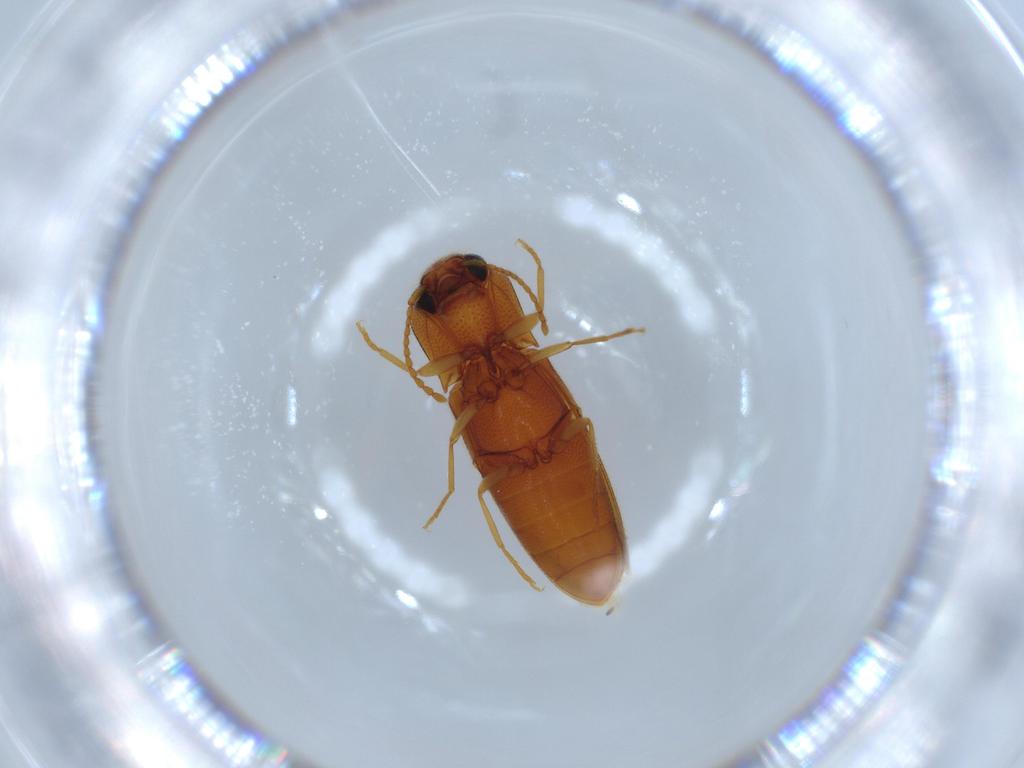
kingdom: Animalia
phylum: Arthropoda
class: Insecta
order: Coleoptera
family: Elateridae
